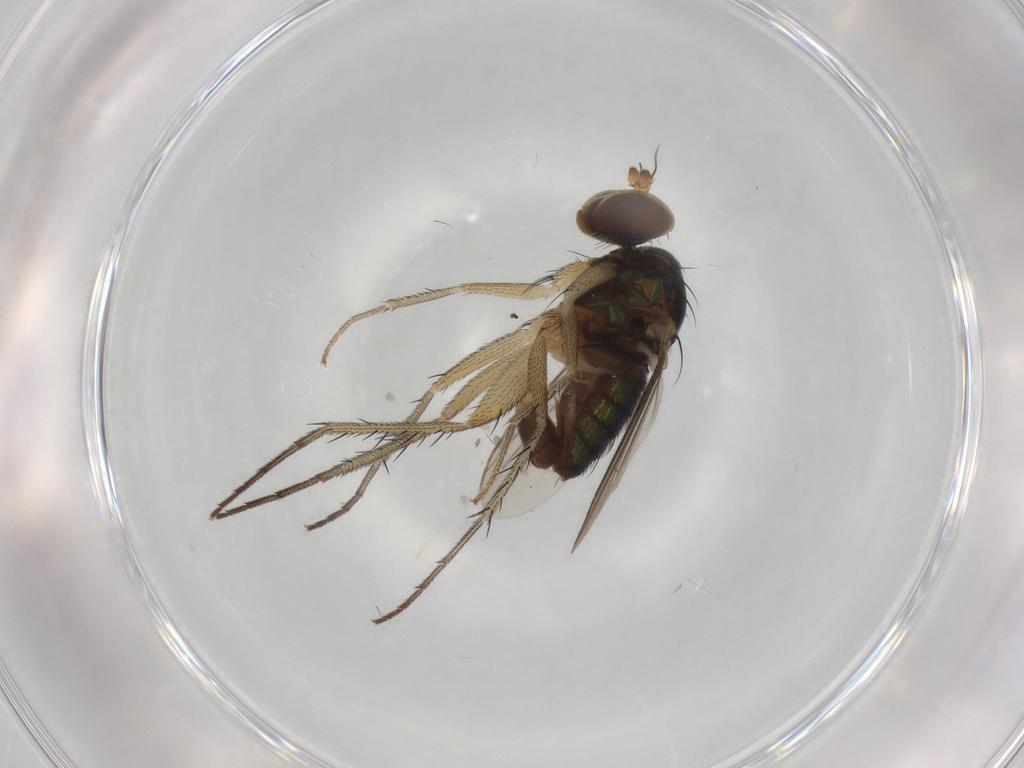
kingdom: Animalia
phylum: Arthropoda
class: Insecta
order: Diptera
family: Dolichopodidae
